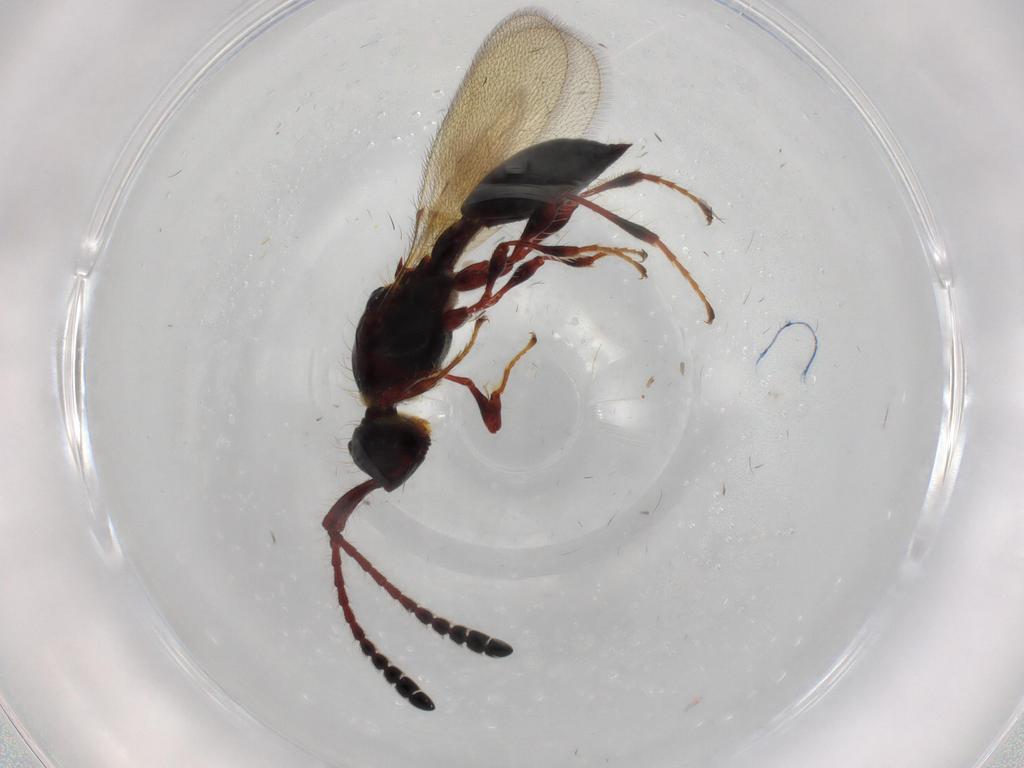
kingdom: Animalia
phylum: Arthropoda
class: Insecta
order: Hymenoptera
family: Diapriidae
